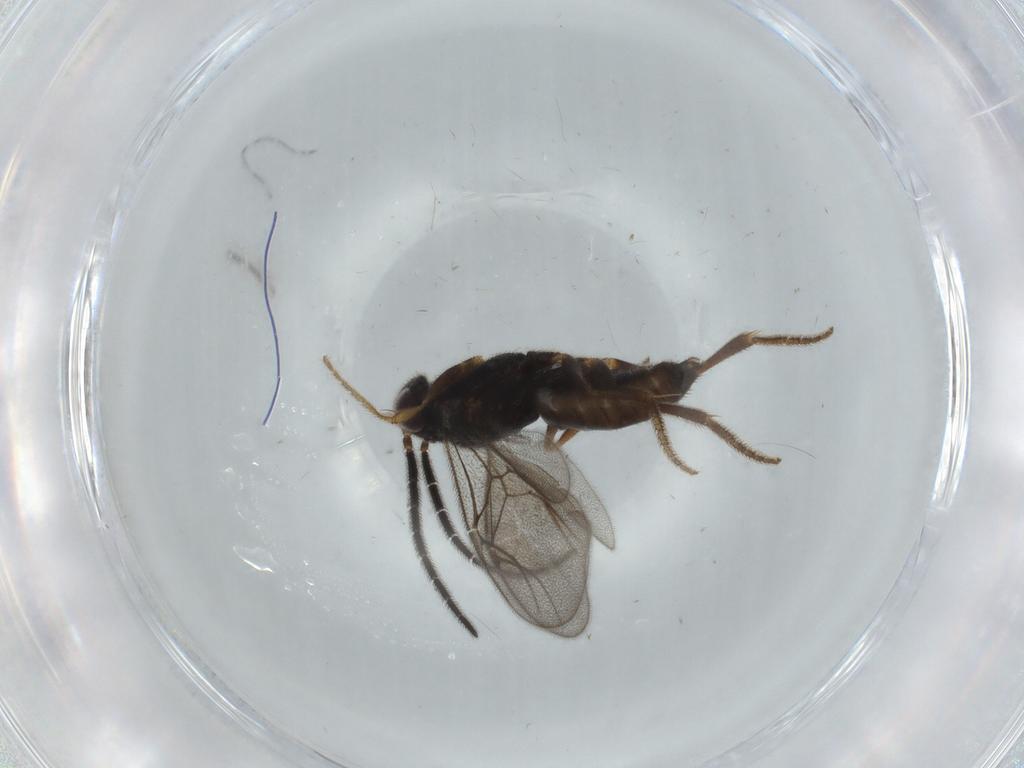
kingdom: Animalia
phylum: Arthropoda
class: Insecta
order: Hymenoptera
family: Dryinidae
